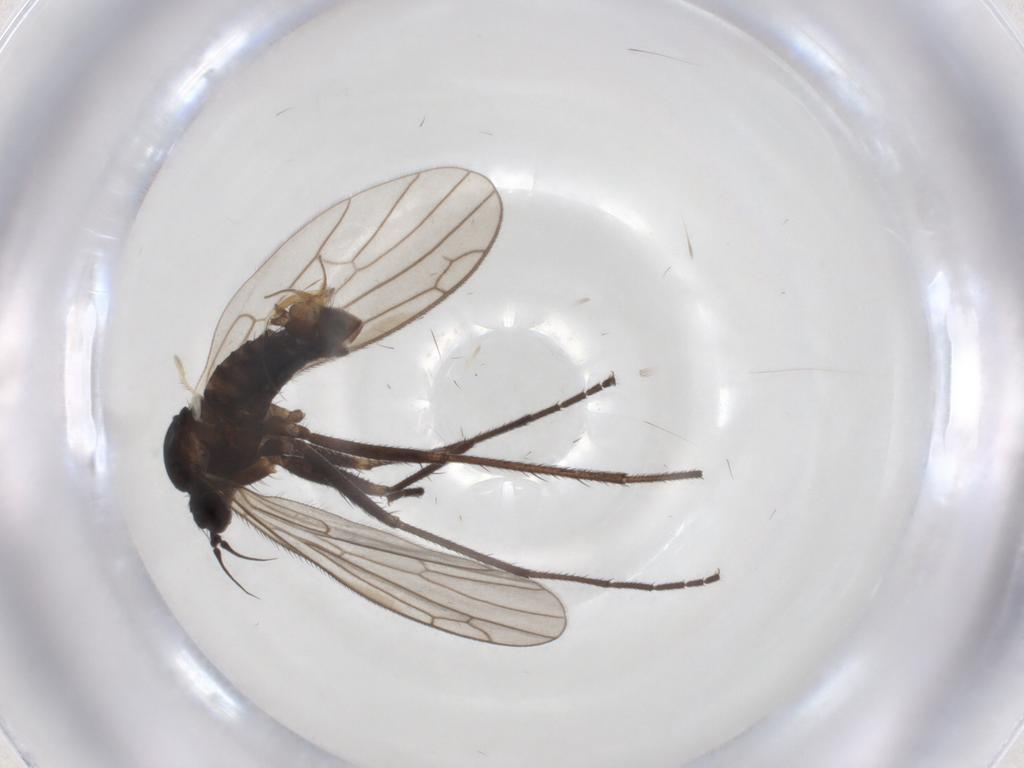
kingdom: Animalia
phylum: Arthropoda
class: Insecta
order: Diptera
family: Empididae
